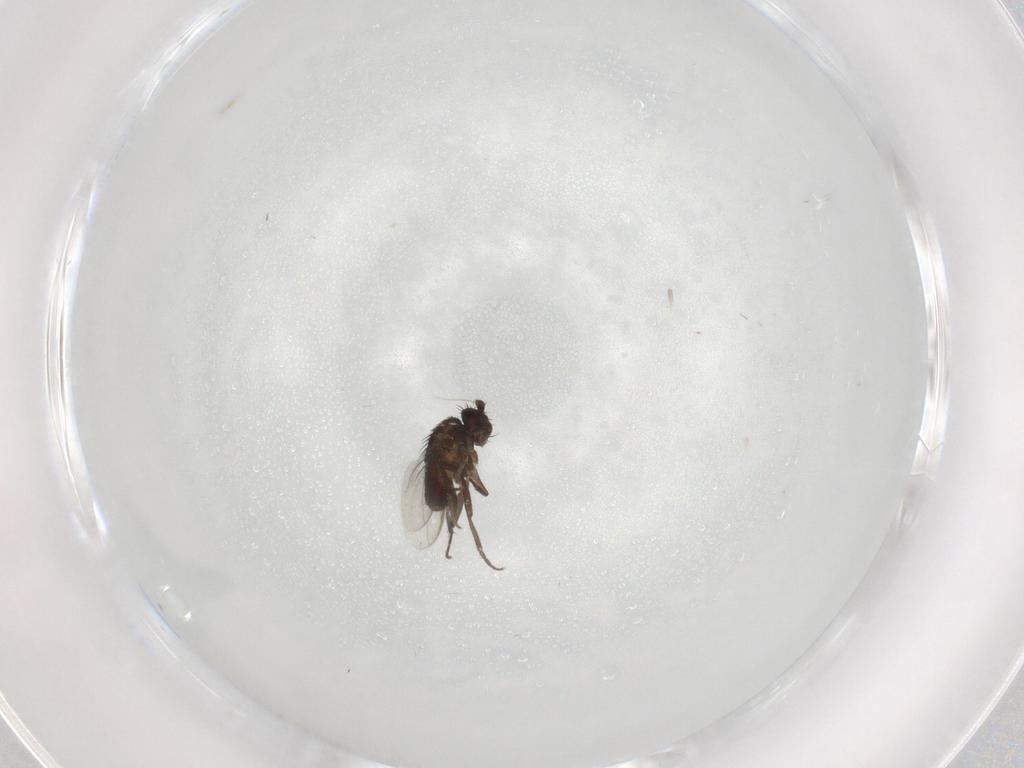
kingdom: Animalia
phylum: Arthropoda
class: Insecta
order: Diptera
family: Sphaeroceridae
